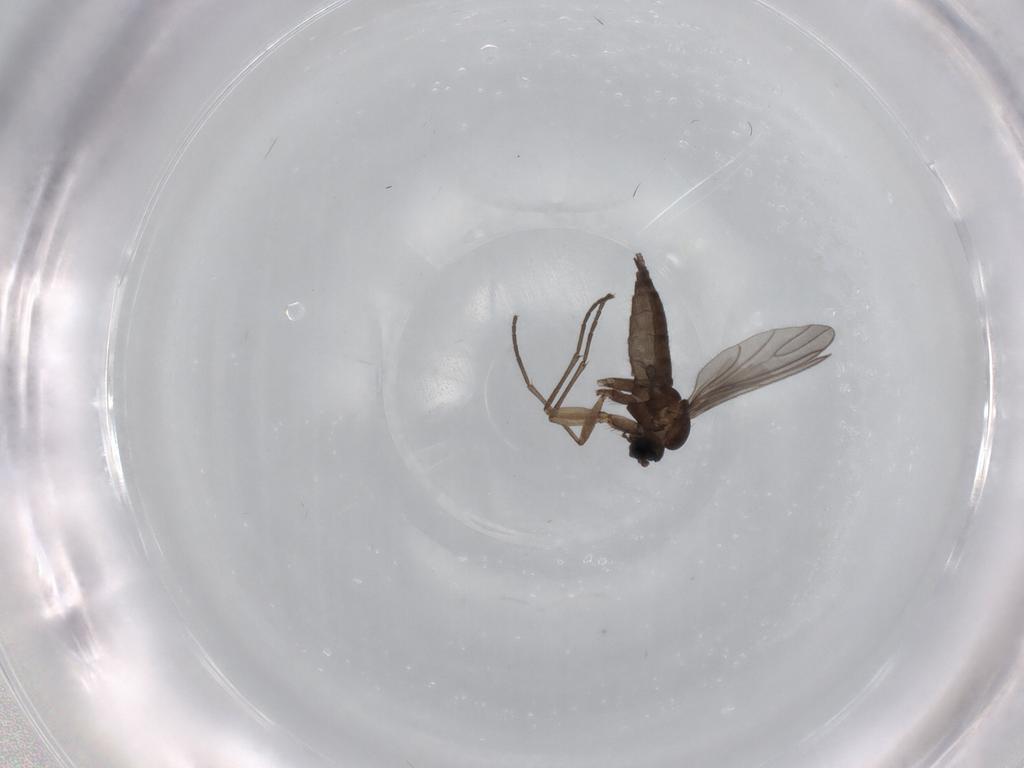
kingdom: Animalia
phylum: Arthropoda
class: Insecta
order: Diptera
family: Sciaridae
